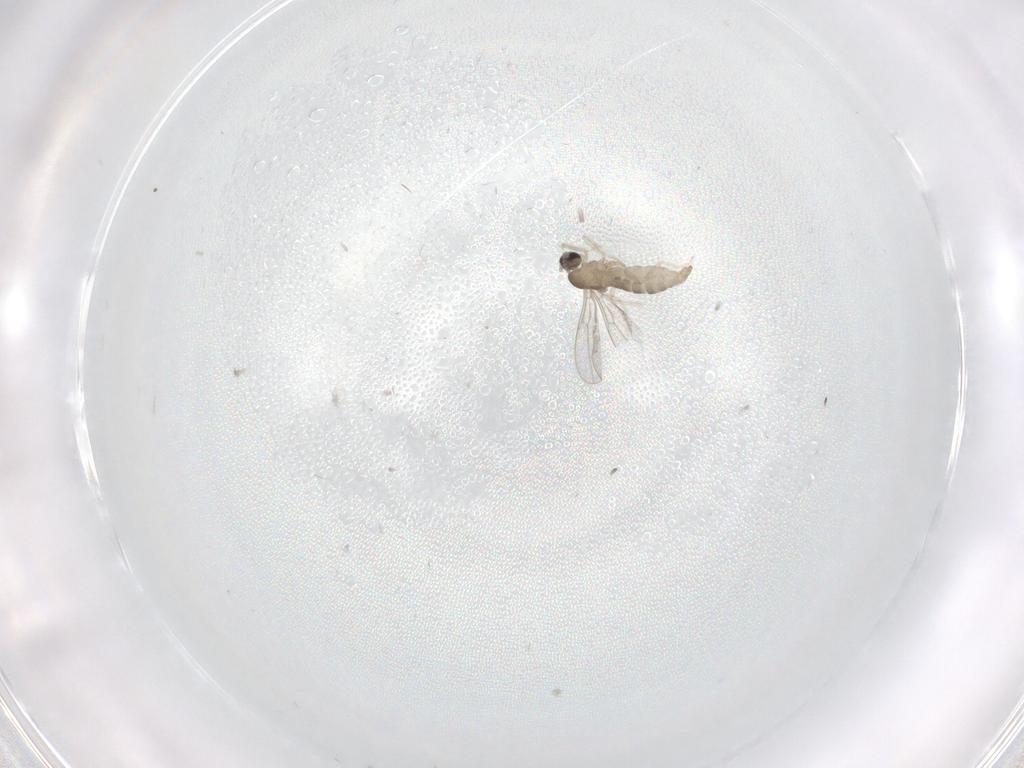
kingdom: Animalia
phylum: Arthropoda
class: Insecta
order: Diptera
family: Cecidomyiidae
